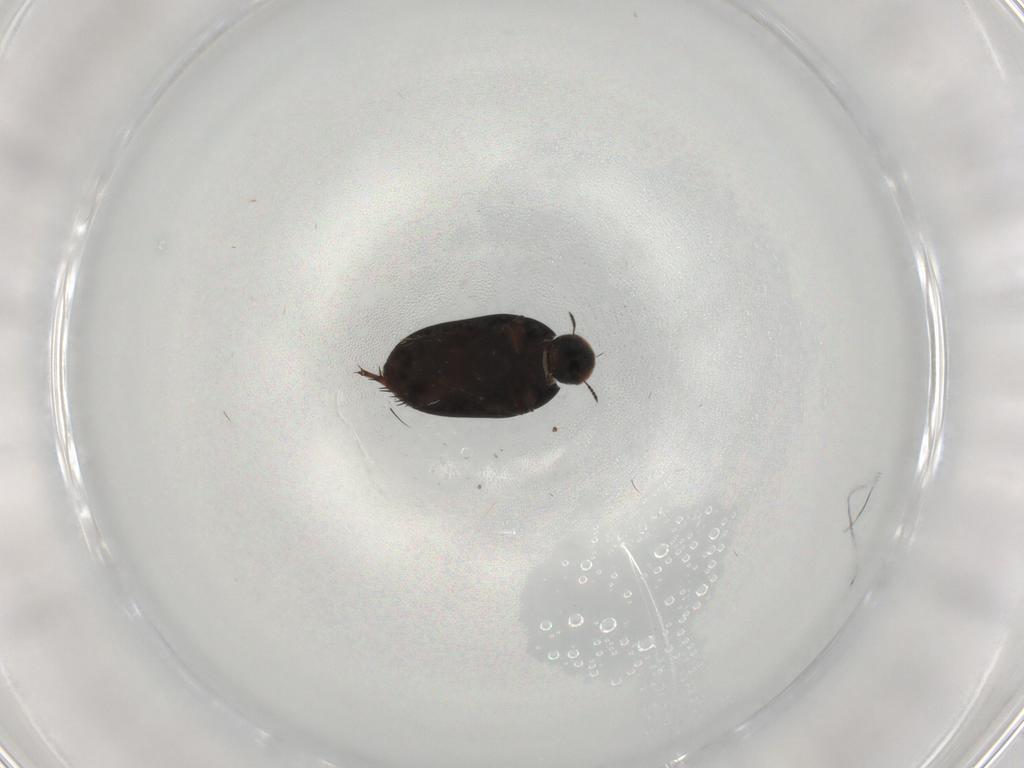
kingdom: Animalia
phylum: Arthropoda
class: Insecta
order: Coleoptera
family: Limnichidae
